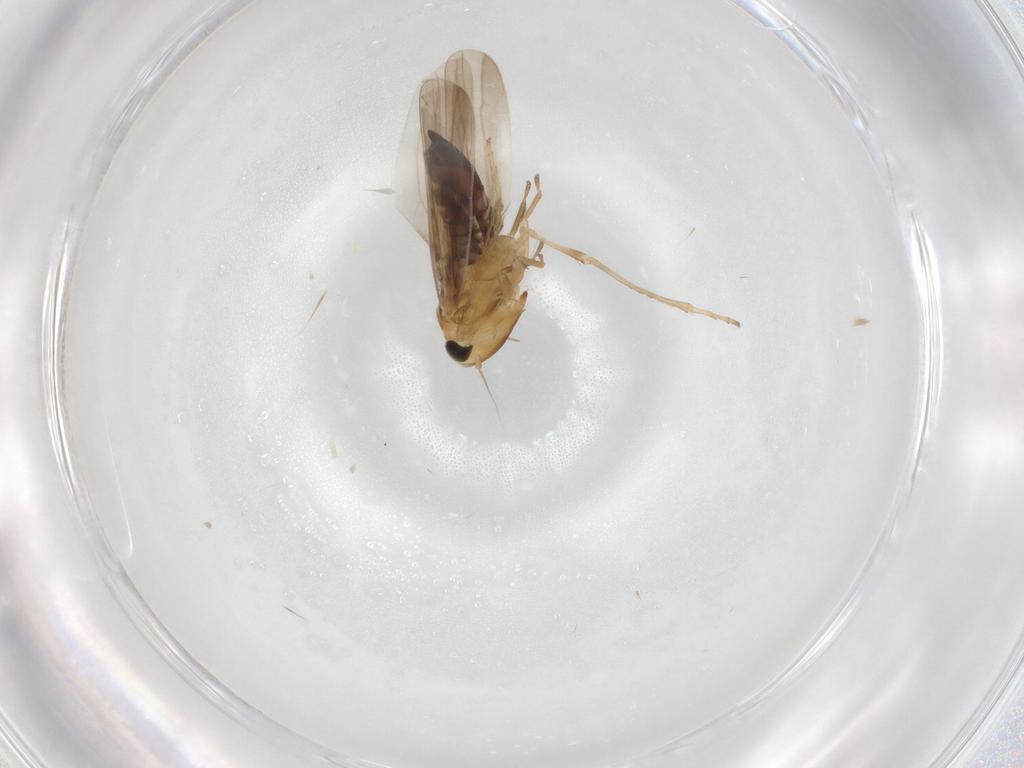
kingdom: Animalia
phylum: Arthropoda
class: Insecta
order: Hemiptera
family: Cicadellidae
